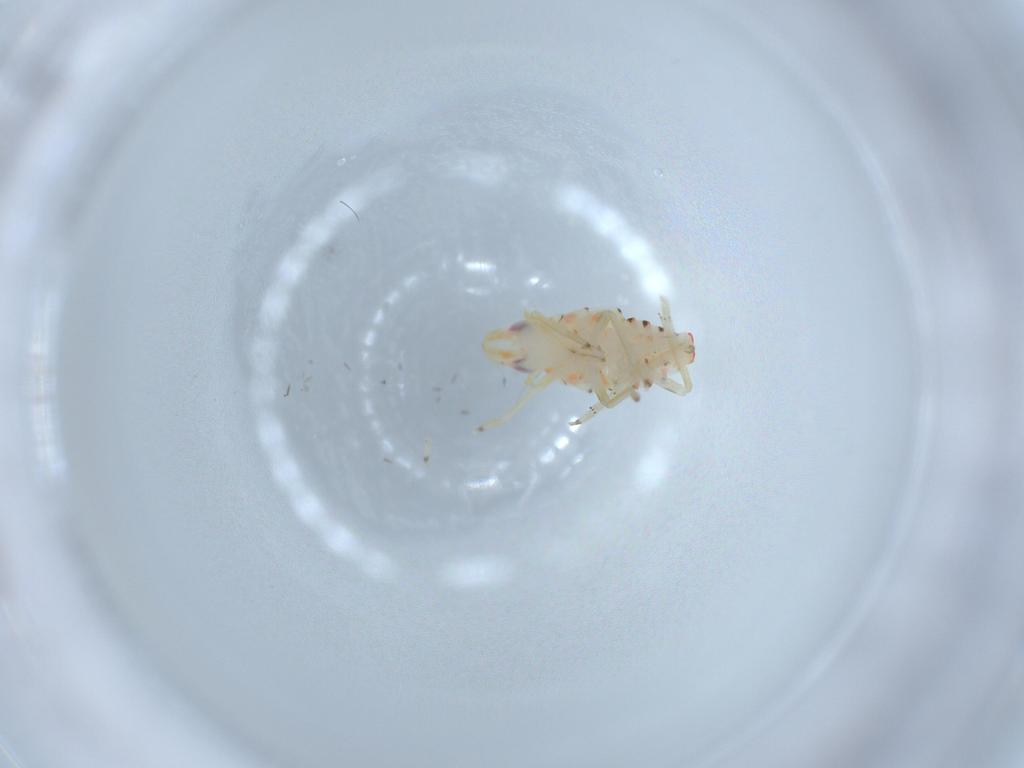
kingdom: Animalia
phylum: Arthropoda
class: Insecta
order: Hemiptera
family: Tropiduchidae
